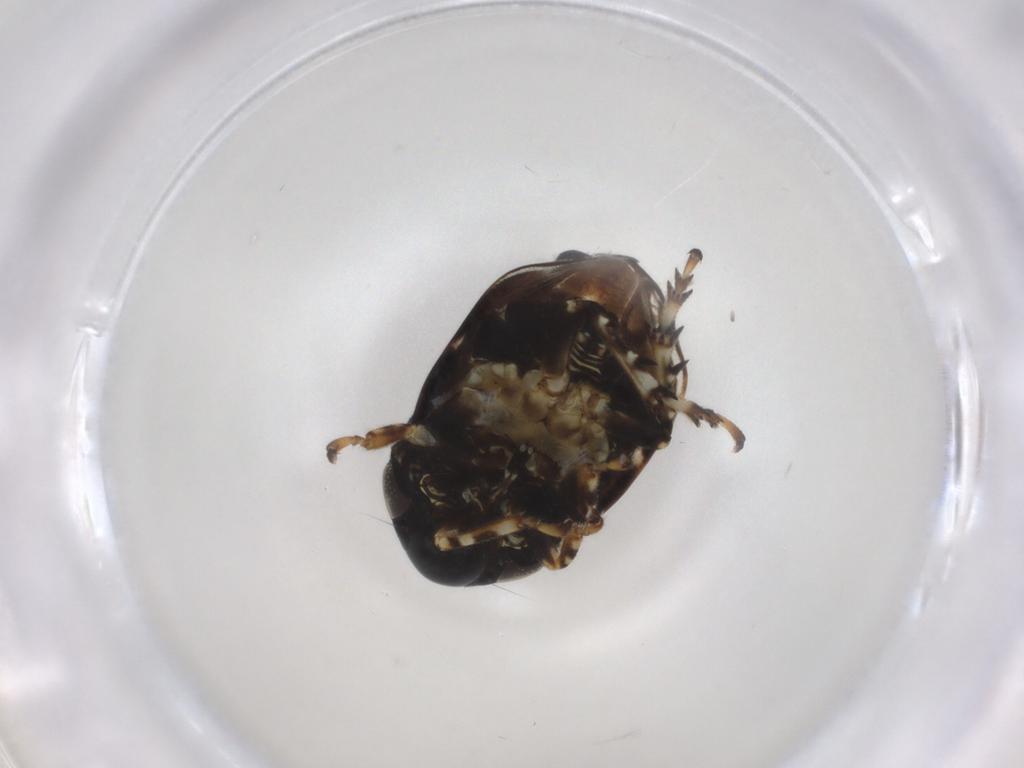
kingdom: Animalia
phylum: Arthropoda
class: Insecta
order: Hemiptera
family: Clastopteridae
